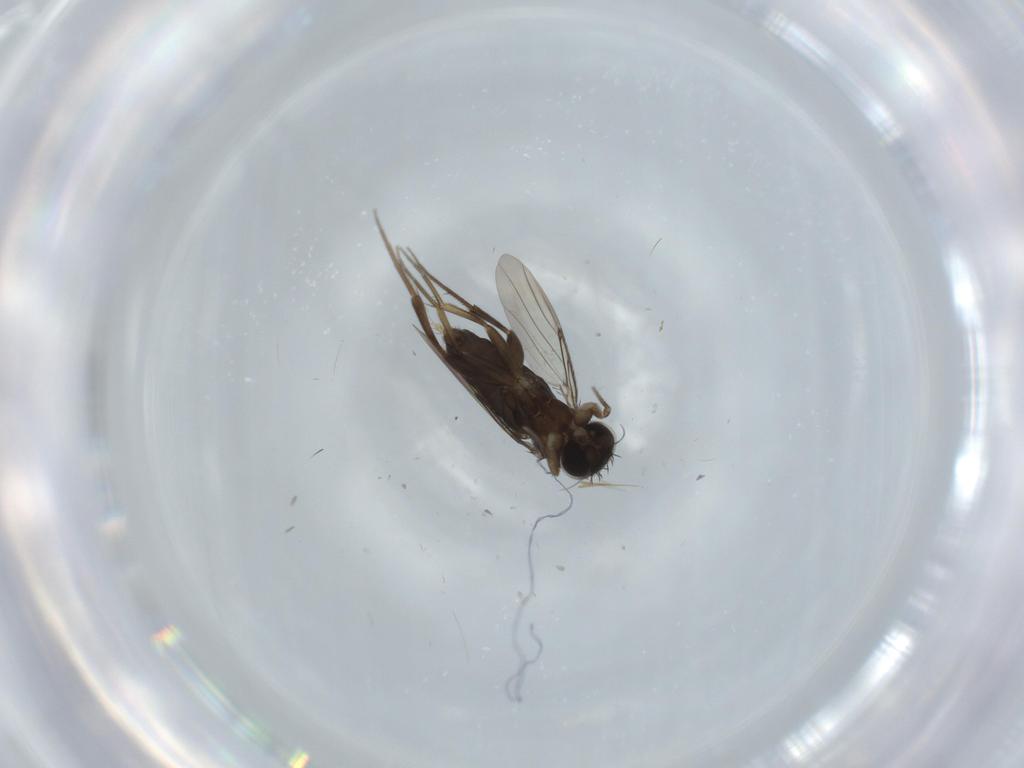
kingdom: Animalia
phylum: Arthropoda
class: Insecta
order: Diptera
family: Phoridae
